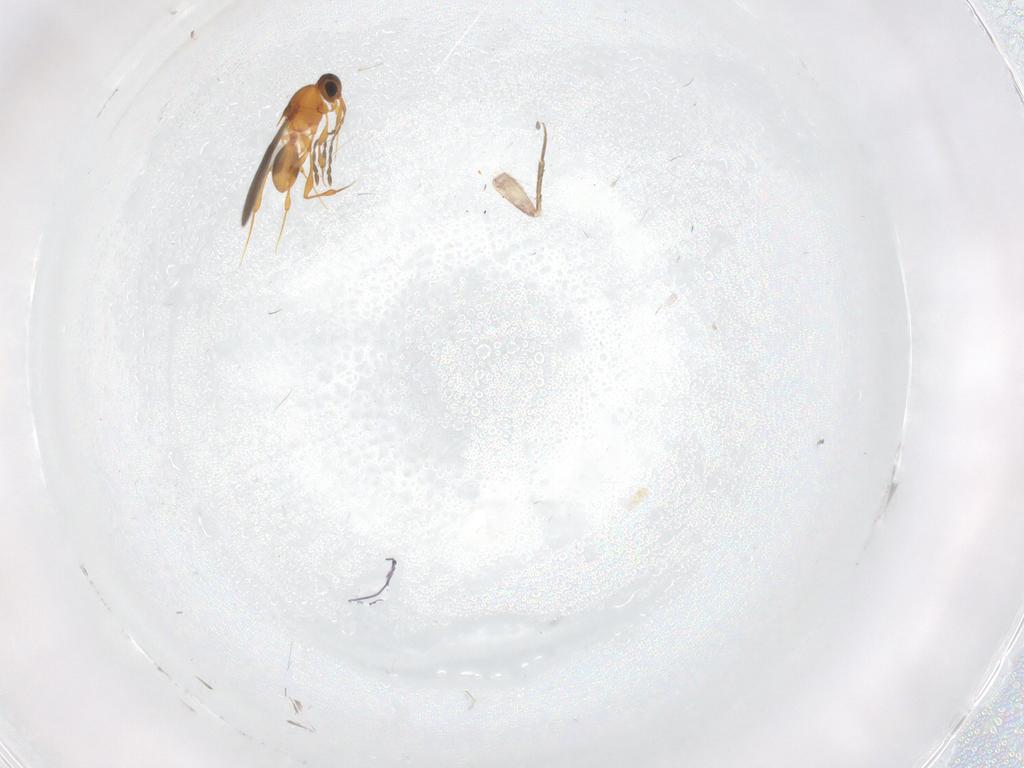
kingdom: Animalia
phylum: Arthropoda
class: Insecta
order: Hymenoptera
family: Platygastridae
